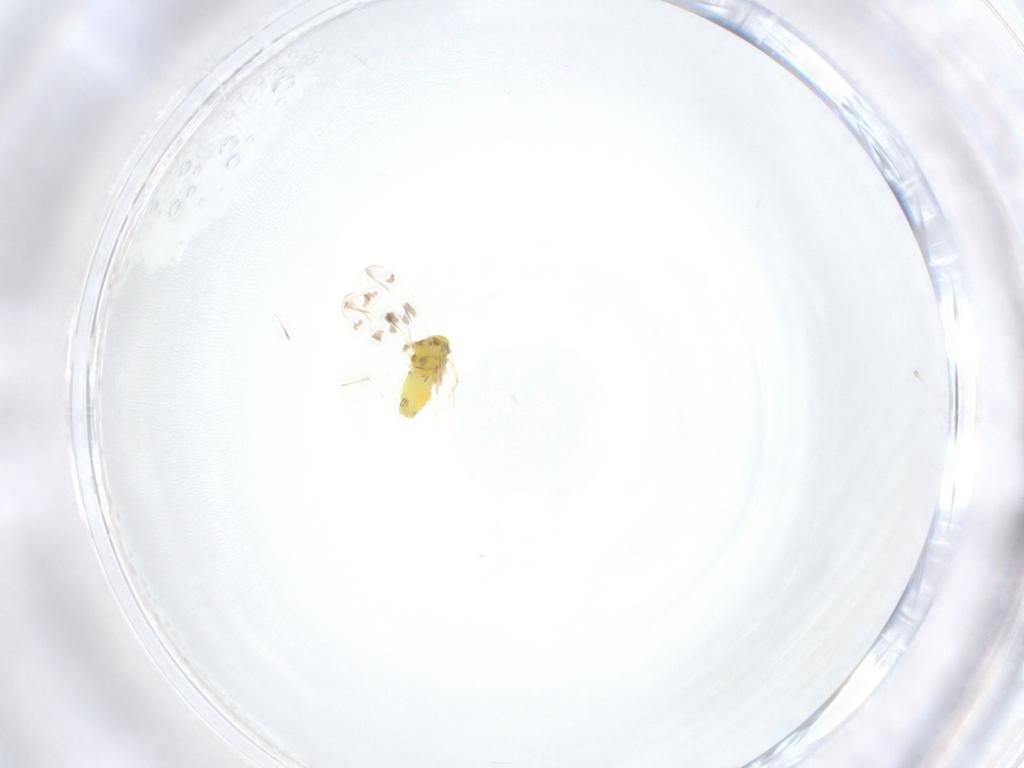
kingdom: Animalia
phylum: Arthropoda
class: Insecta
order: Hemiptera
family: Aleyrodidae
